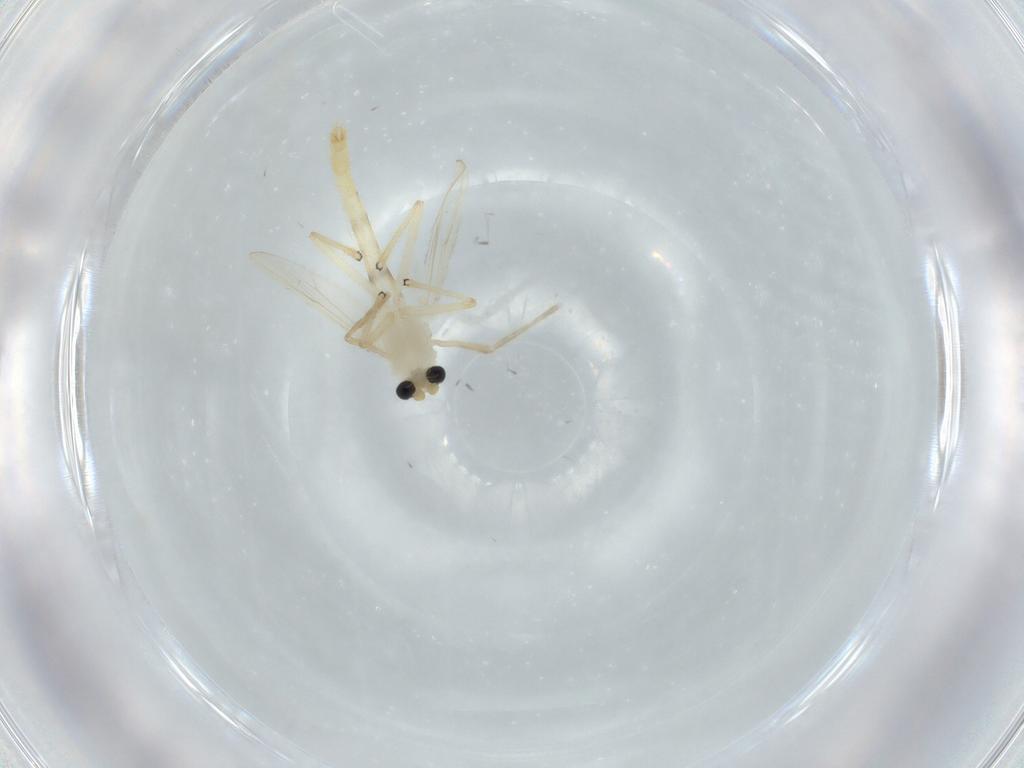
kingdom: Animalia
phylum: Arthropoda
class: Insecta
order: Diptera
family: Chironomidae
